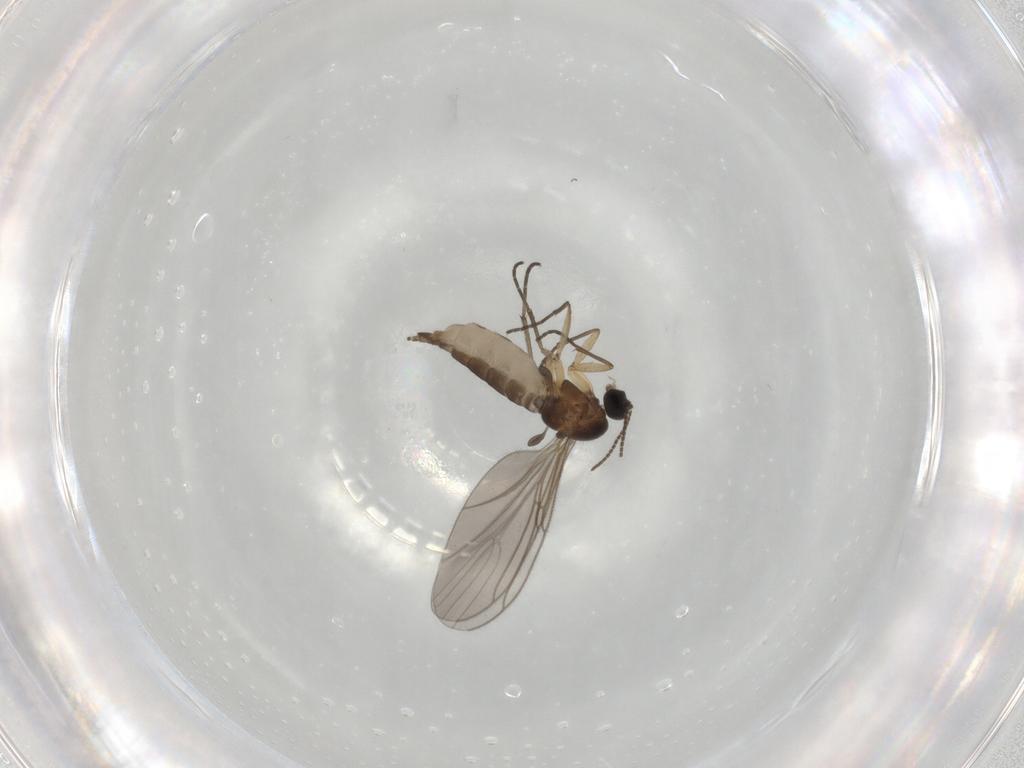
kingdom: Animalia
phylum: Arthropoda
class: Insecta
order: Diptera
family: Sciaridae
